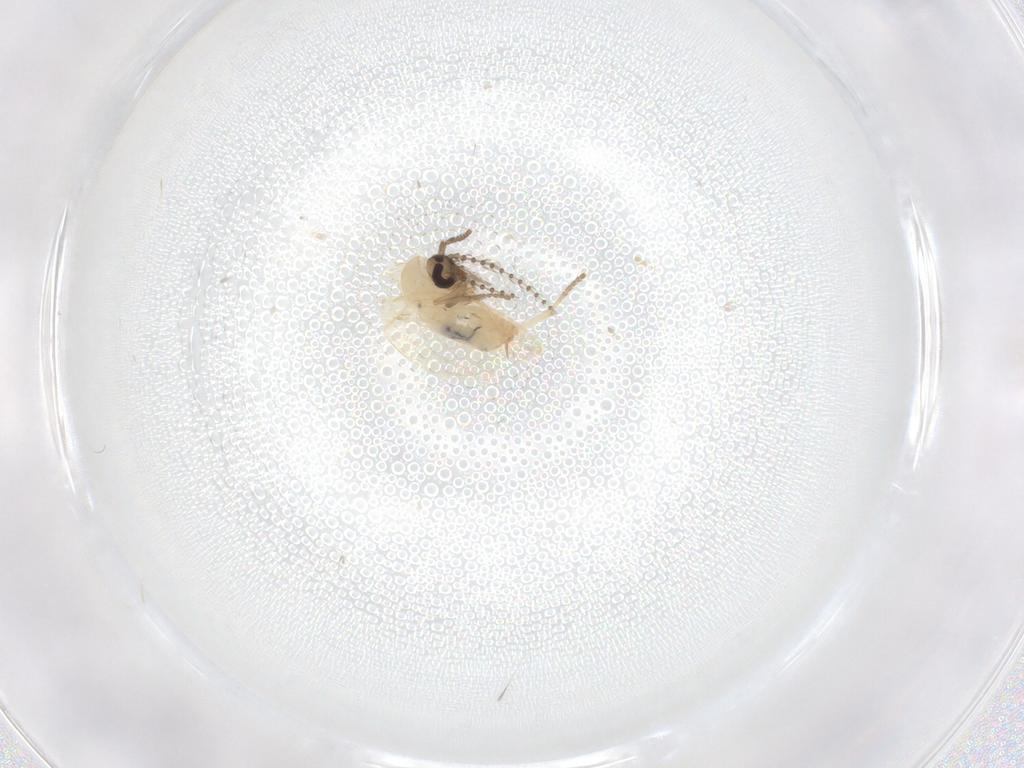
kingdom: Animalia
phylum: Arthropoda
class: Insecta
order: Diptera
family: Psychodidae
